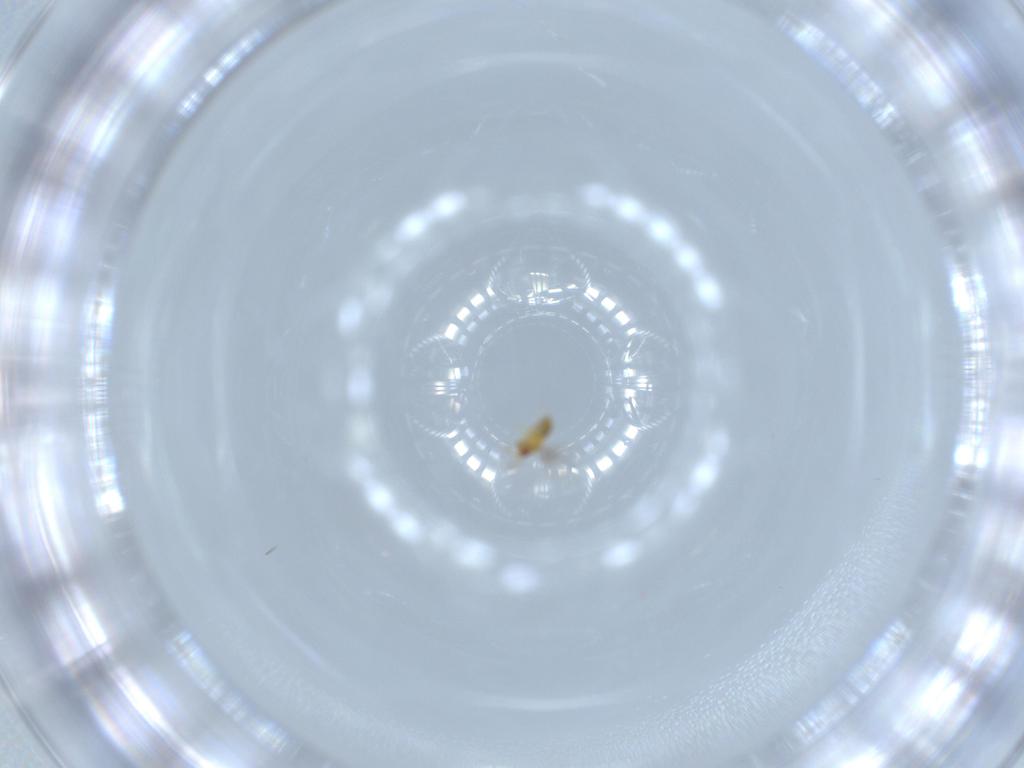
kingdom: Animalia
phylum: Arthropoda
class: Insecta
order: Hymenoptera
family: Trichogrammatidae
